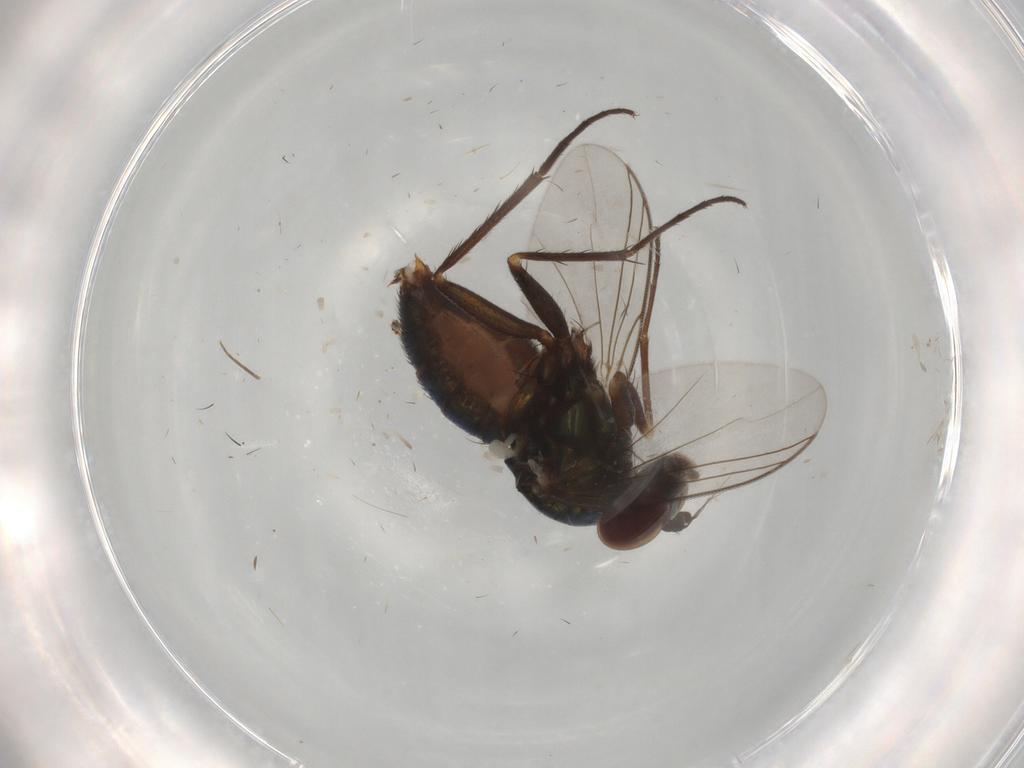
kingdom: Animalia
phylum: Arthropoda
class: Insecta
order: Diptera
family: Dolichopodidae
